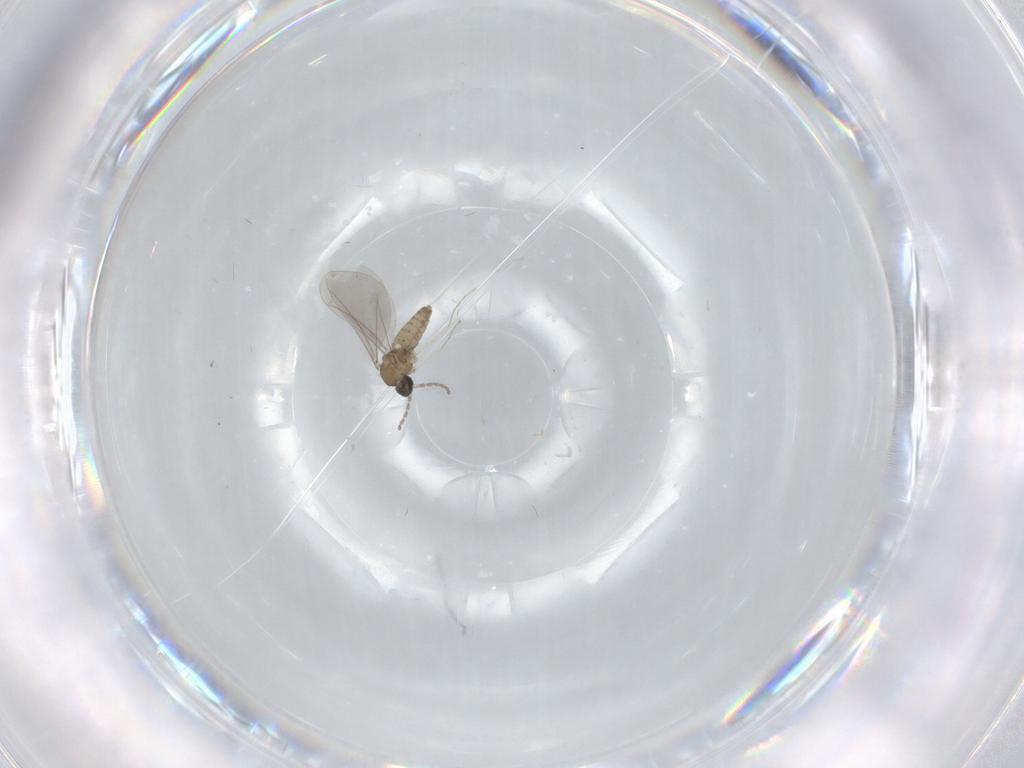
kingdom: Animalia
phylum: Arthropoda
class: Insecta
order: Diptera
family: Cecidomyiidae
